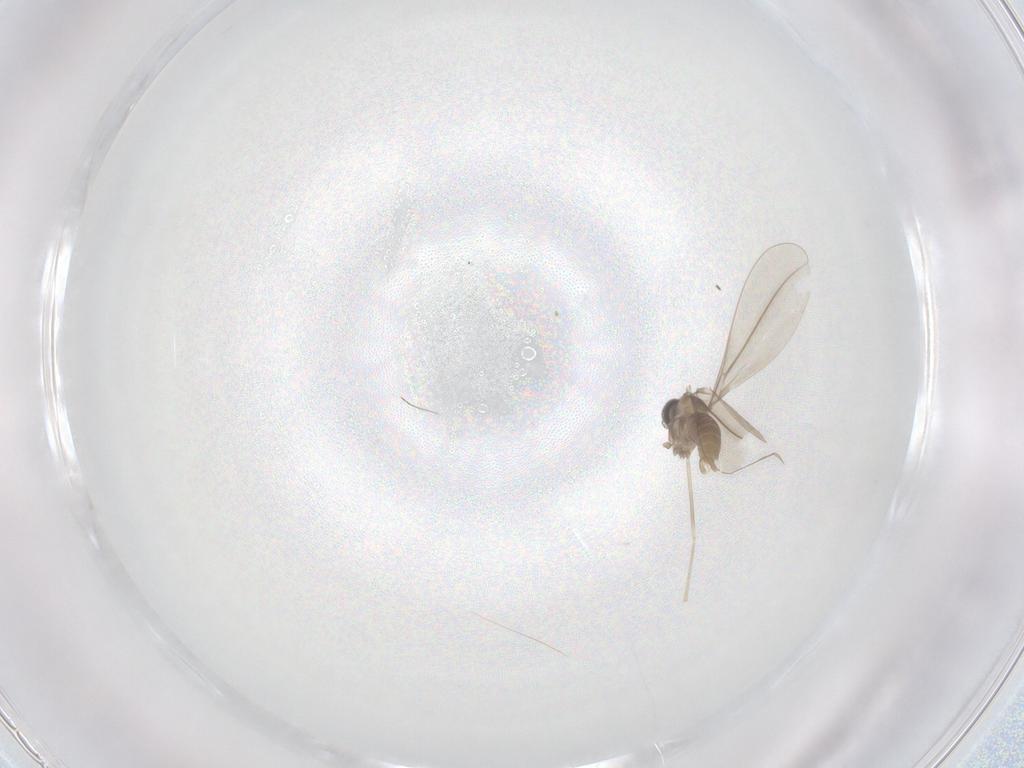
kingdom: Animalia
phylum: Arthropoda
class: Insecta
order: Diptera
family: Cecidomyiidae
